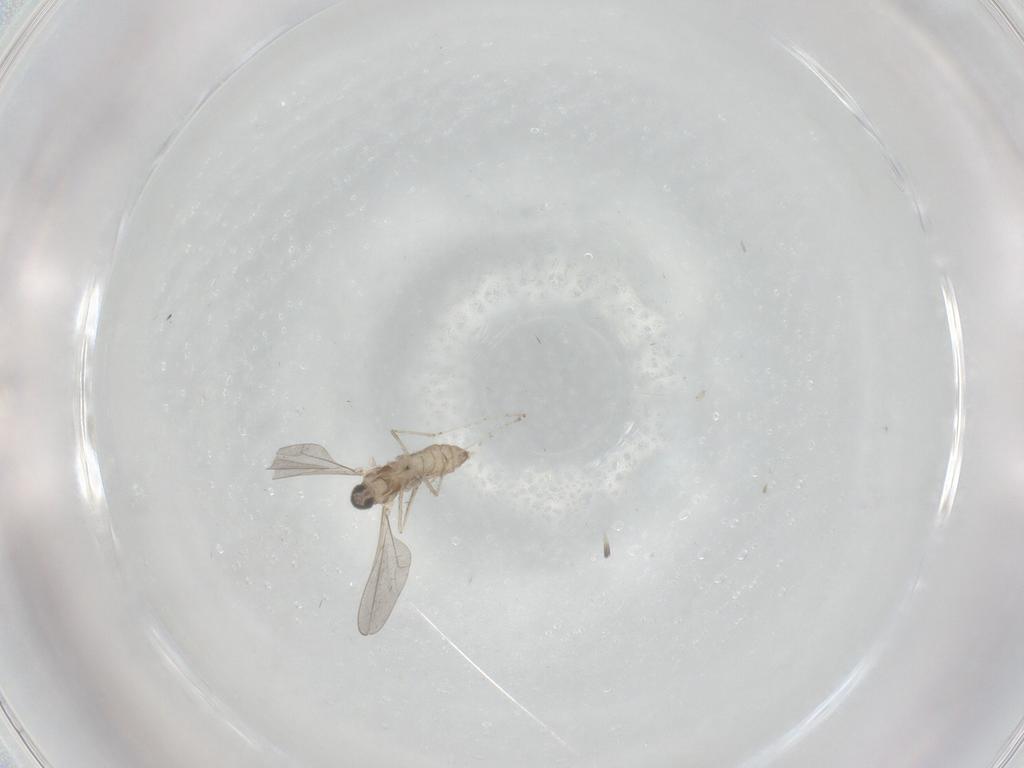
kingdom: Animalia
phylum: Arthropoda
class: Insecta
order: Diptera
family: Cecidomyiidae
